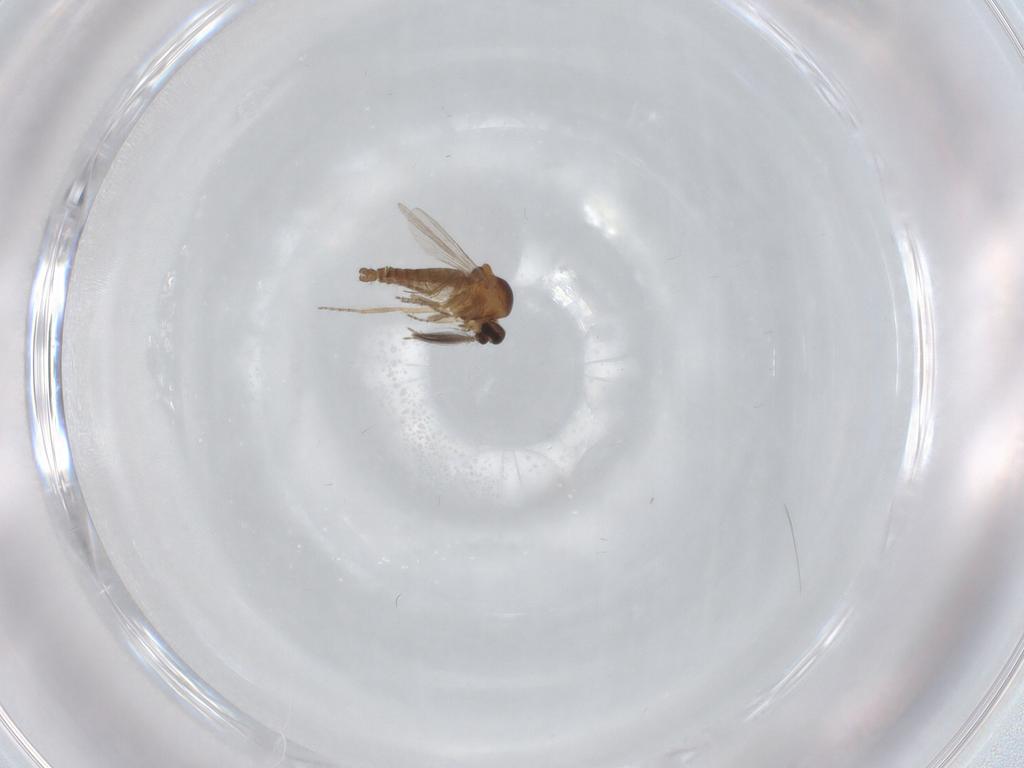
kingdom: Animalia
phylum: Arthropoda
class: Insecta
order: Diptera
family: Ceratopogonidae
